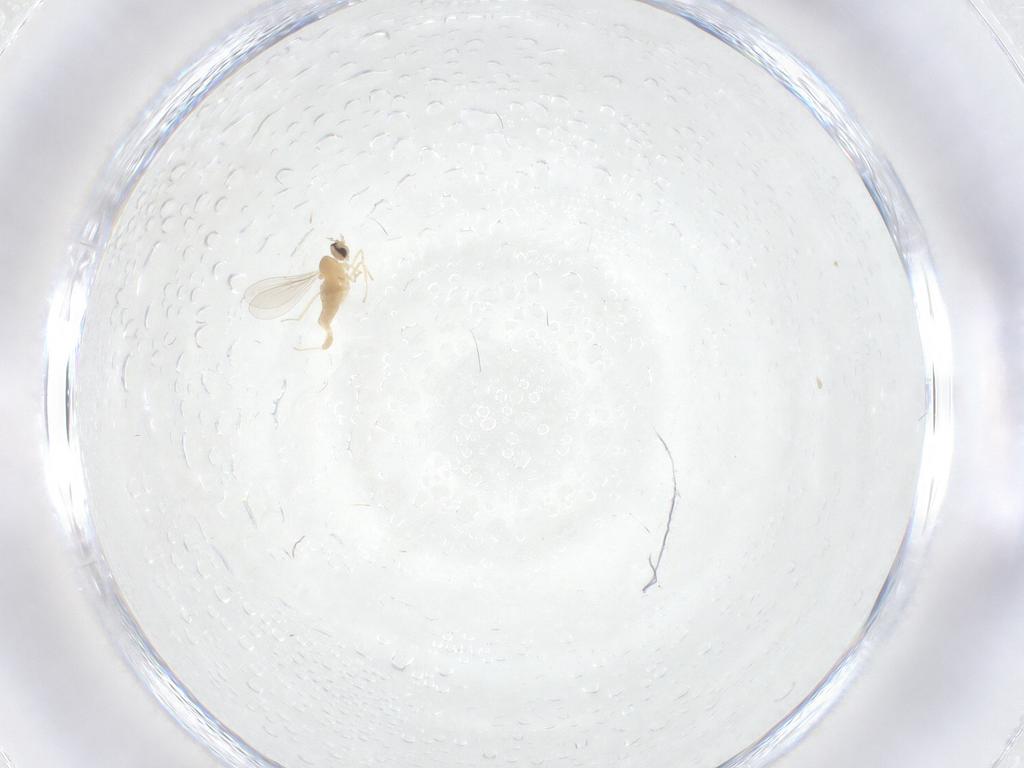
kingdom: Animalia
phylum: Arthropoda
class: Insecta
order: Diptera
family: Cecidomyiidae
